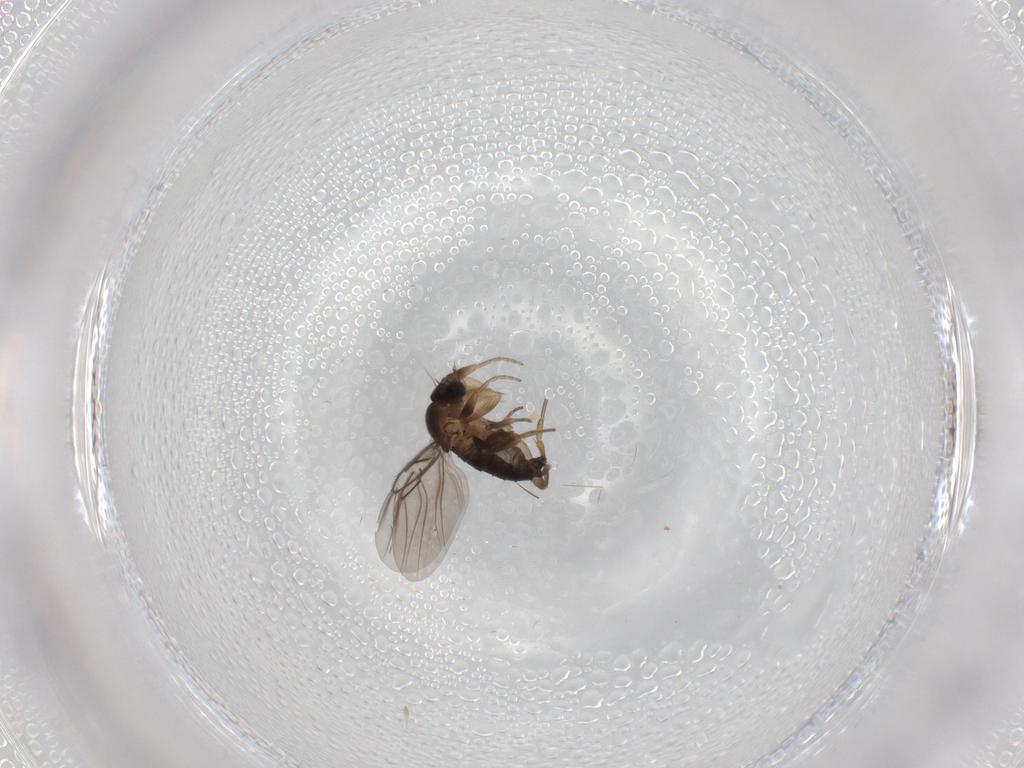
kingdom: Animalia
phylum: Arthropoda
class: Insecta
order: Diptera
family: Phoridae
